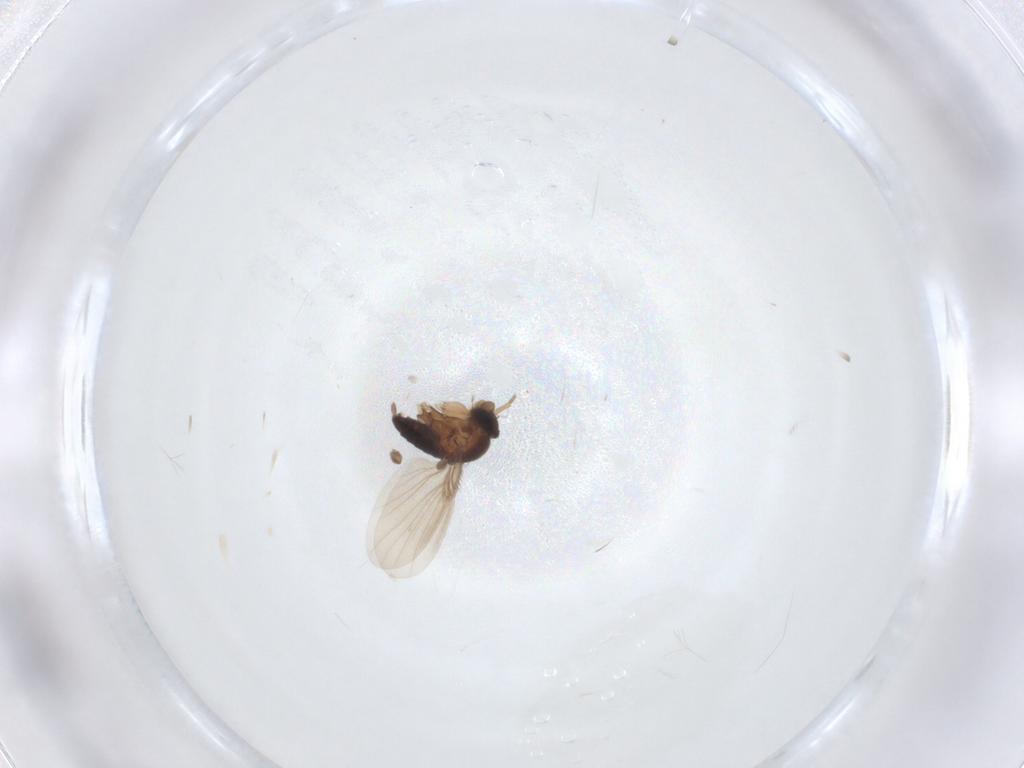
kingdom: Animalia
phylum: Arthropoda
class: Insecta
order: Diptera
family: Phoridae
